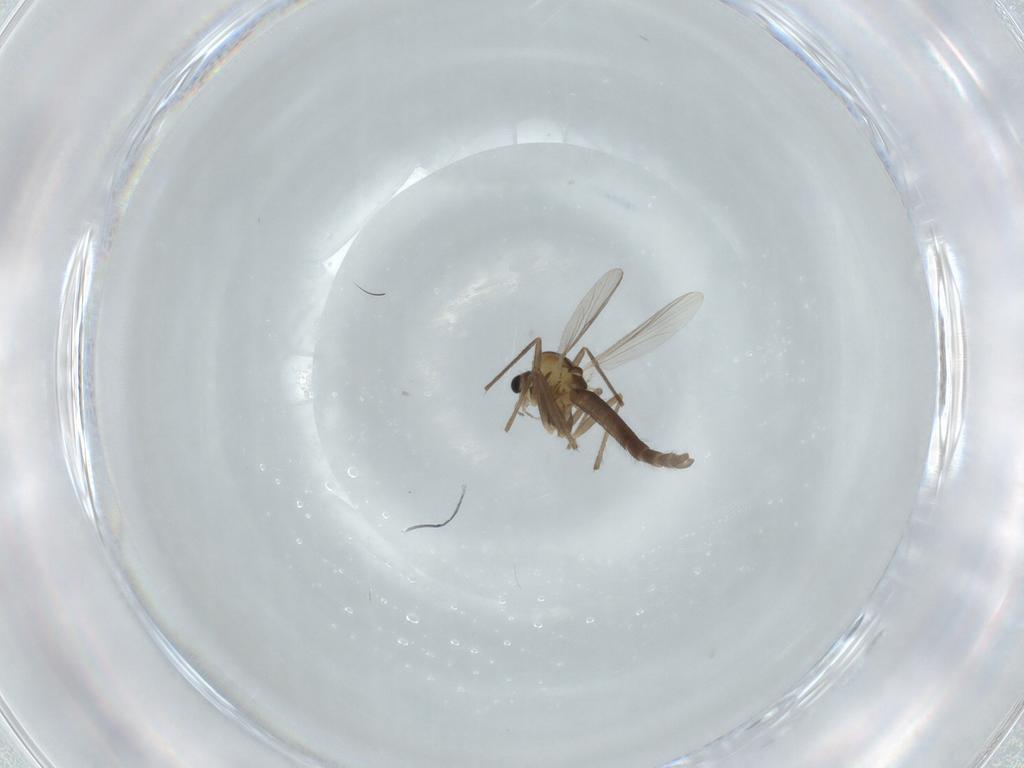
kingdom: Animalia
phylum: Arthropoda
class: Insecta
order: Diptera
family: Chironomidae
